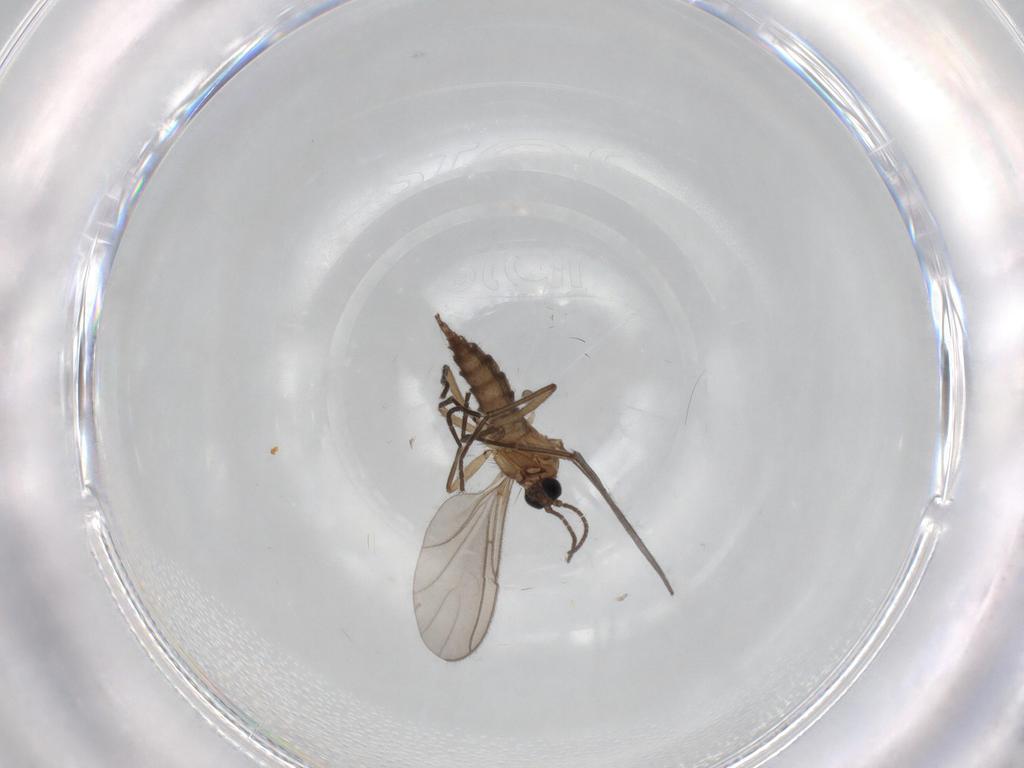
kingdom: Animalia
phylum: Arthropoda
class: Insecta
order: Diptera
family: Sciaridae
